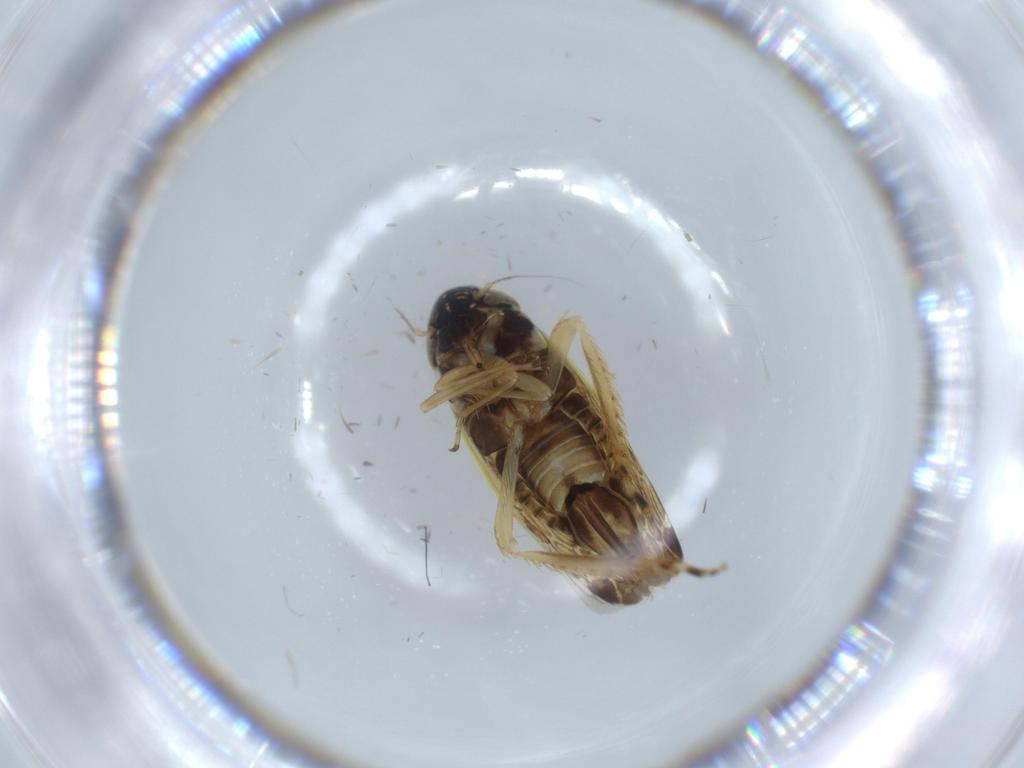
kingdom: Animalia
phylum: Arthropoda
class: Insecta
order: Hemiptera
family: Cicadellidae
